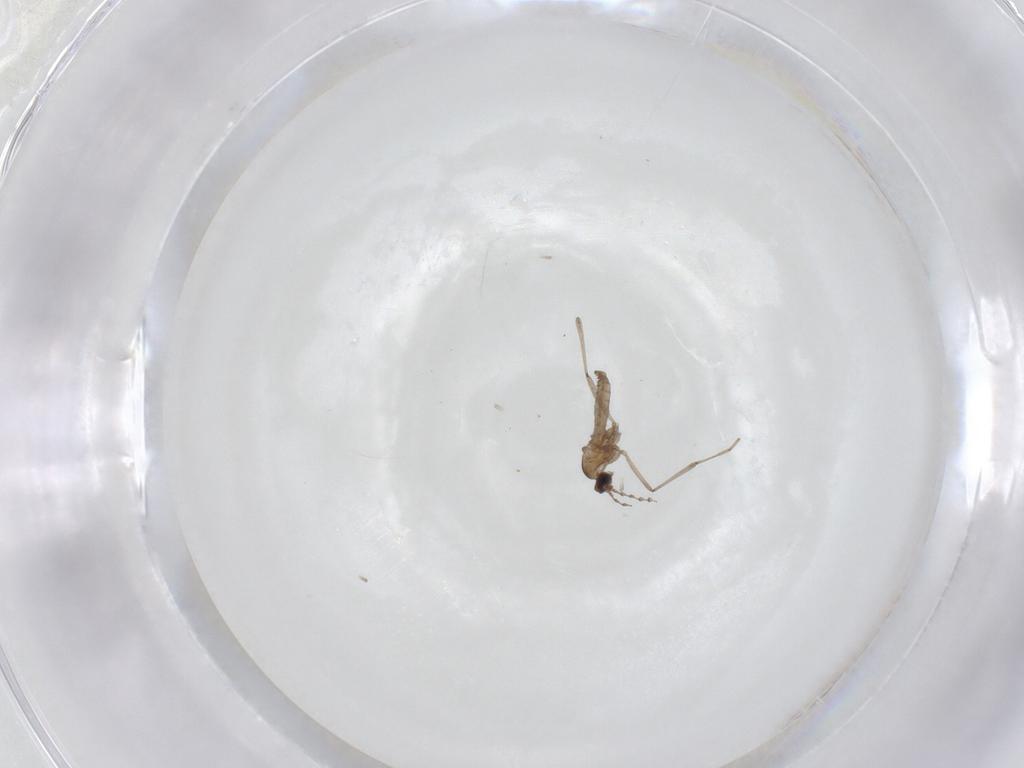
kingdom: Animalia
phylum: Arthropoda
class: Insecta
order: Diptera
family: Cecidomyiidae
